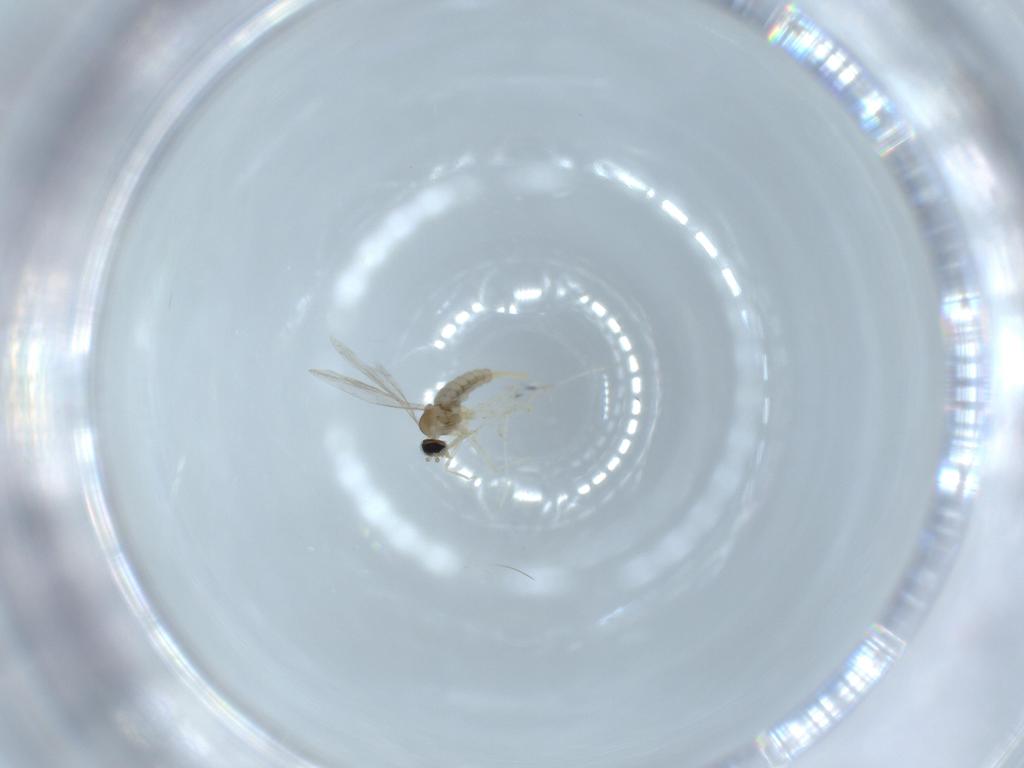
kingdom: Animalia
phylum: Arthropoda
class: Insecta
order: Diptera
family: Cecidomyiidae
